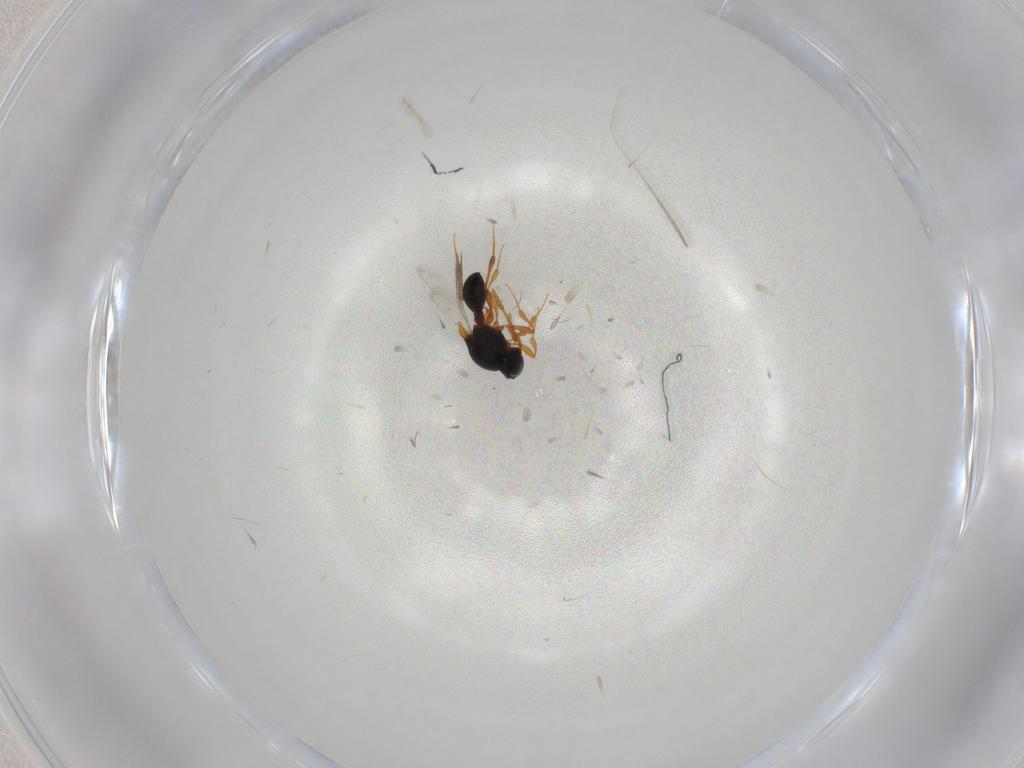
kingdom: Animalia
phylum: Arthropoda
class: Insecta
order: Hymenoptera
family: Platygastridae
